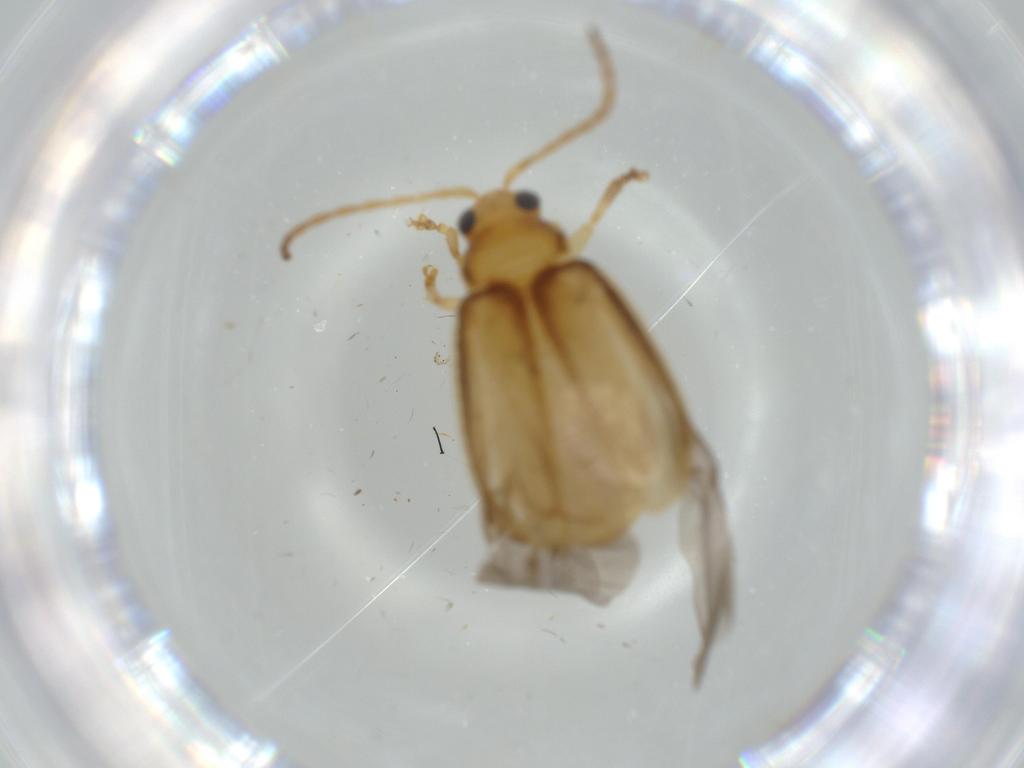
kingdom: Animalia
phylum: Arthropoda
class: Insecta
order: Coleoptera
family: Chrysomelidae
